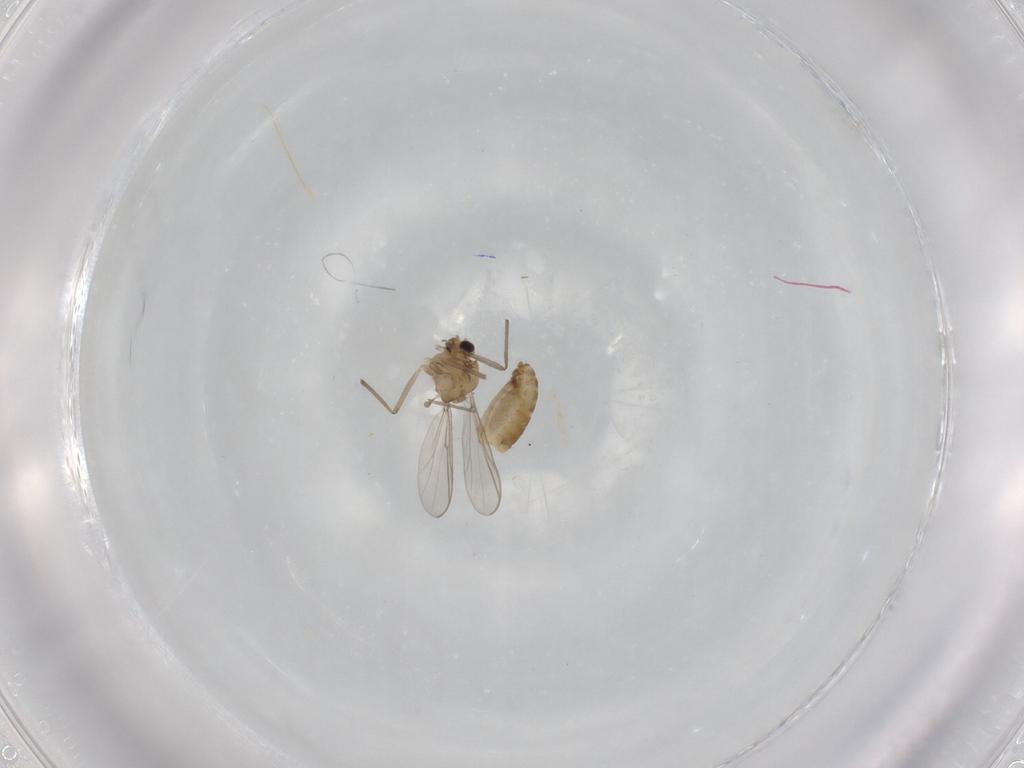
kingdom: Animalia
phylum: Arthropoda
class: Insecta
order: Diptera
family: Chironomidae
